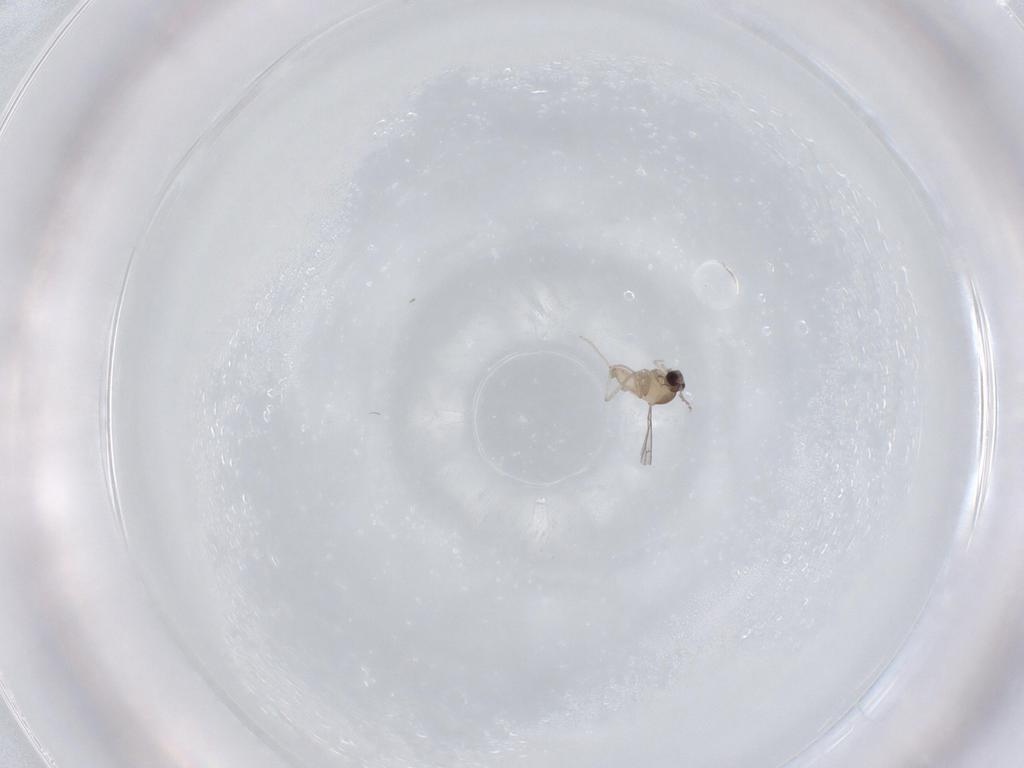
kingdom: Animalia
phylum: Arthropoda
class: Insecta
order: Diptera
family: Cecidomyiidae
